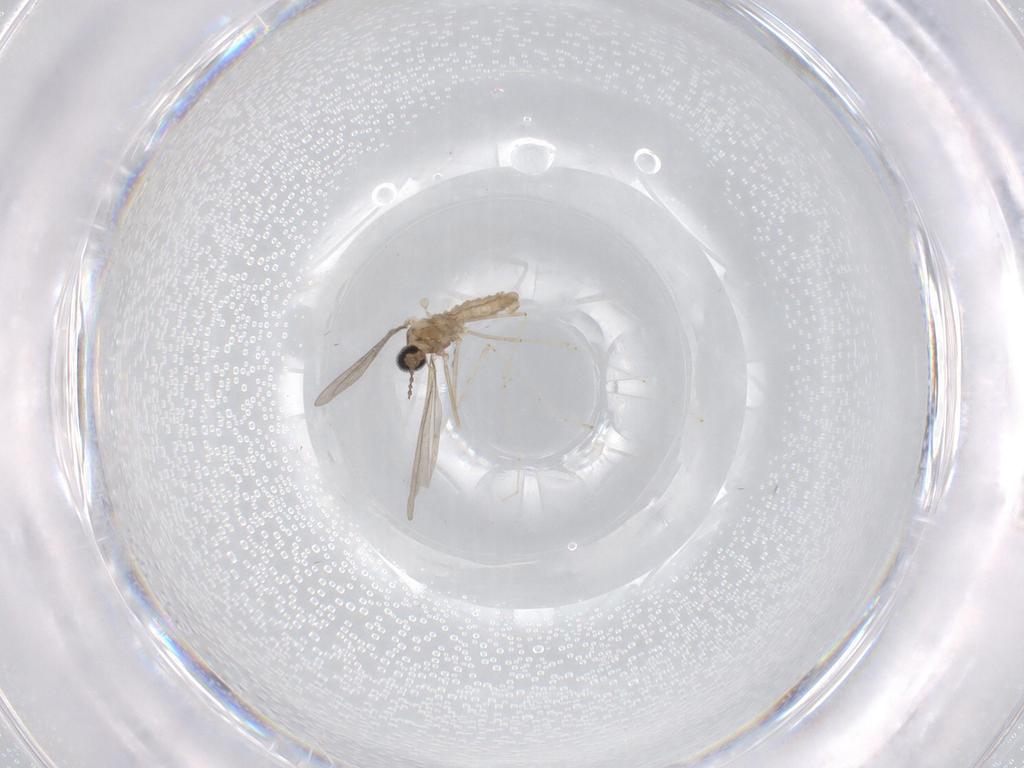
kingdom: Animalia
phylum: Arthropoda
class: Insecta
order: Diptera
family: Cecidomyiidae
